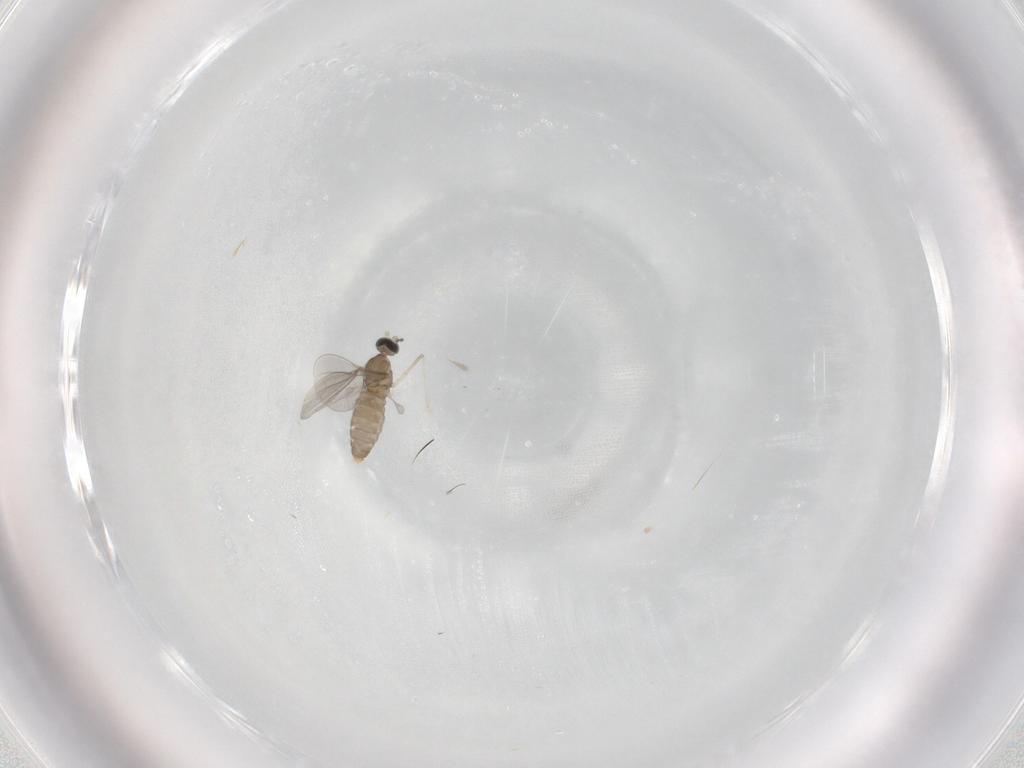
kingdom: Animalia
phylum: Arthropoda
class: Insecta
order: Diptera
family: Cecidomyiidae
